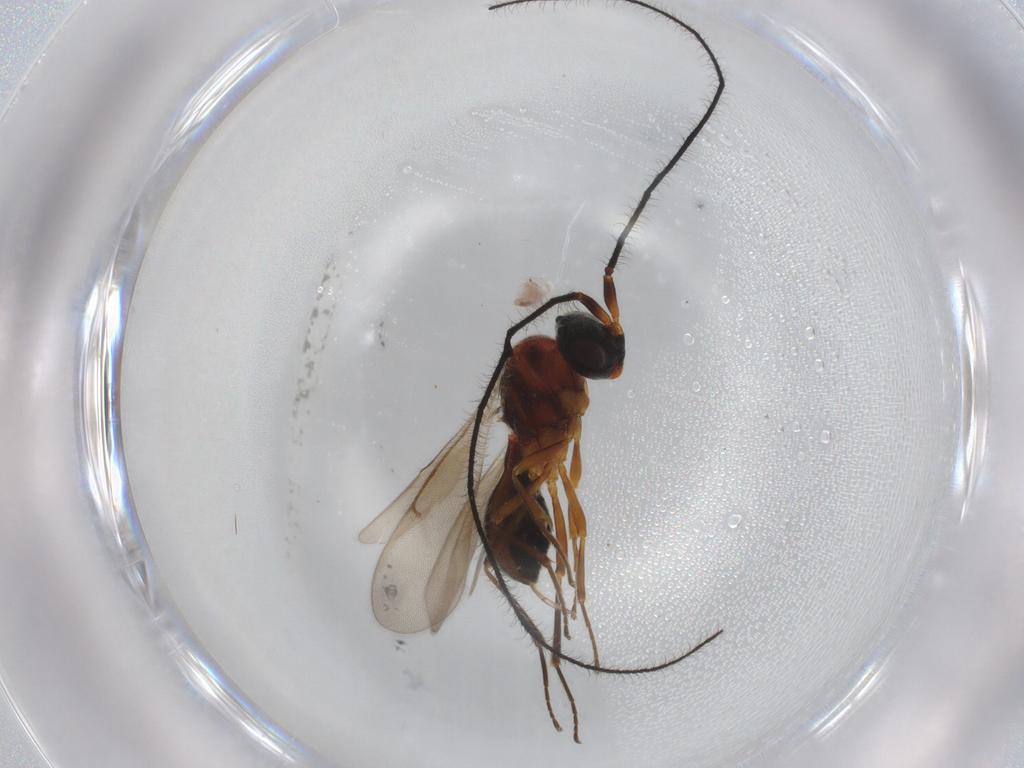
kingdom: Animalia
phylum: Arthropoda
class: Insecta
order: Hymenoptera
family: Scelionidae
